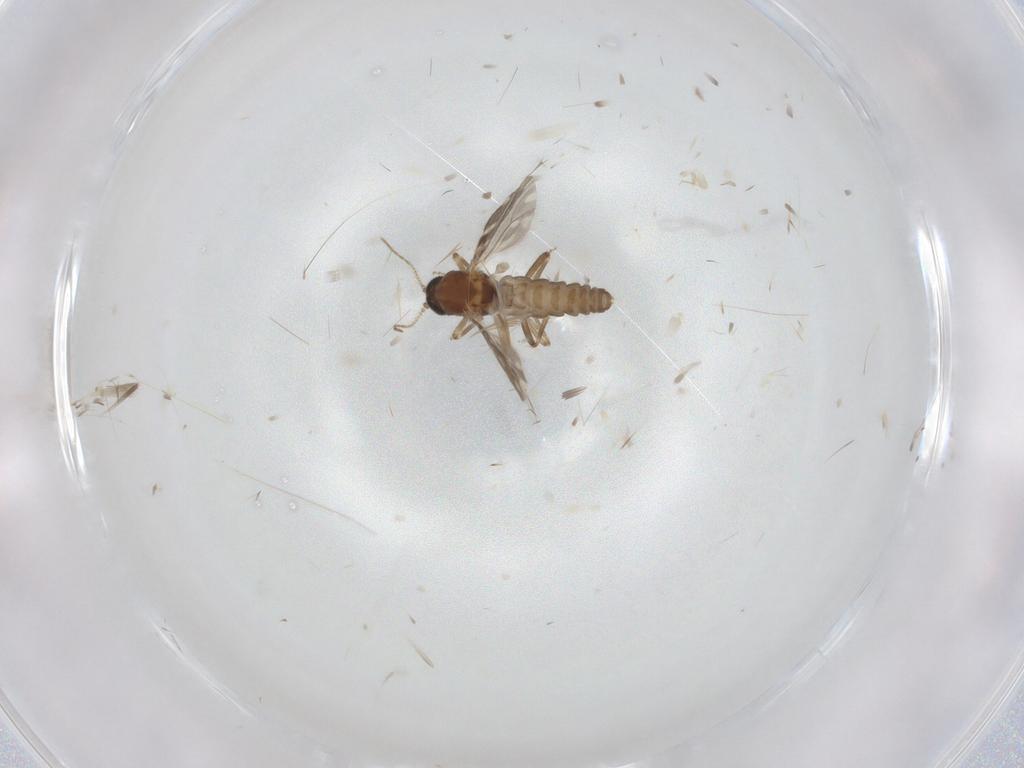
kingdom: Animalia
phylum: Arthropoda
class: Insecta
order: Diptera
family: Ceratopogonidae
